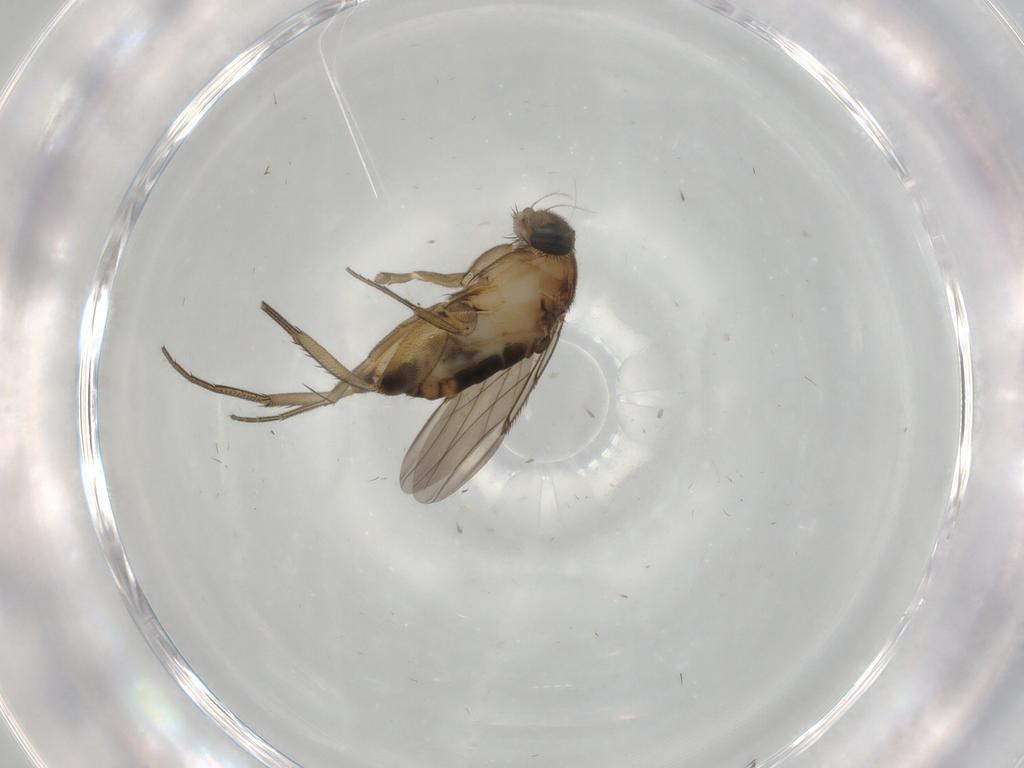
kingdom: Animalia
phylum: Arthropoda
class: Insecta
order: Diptera
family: Phoridae
